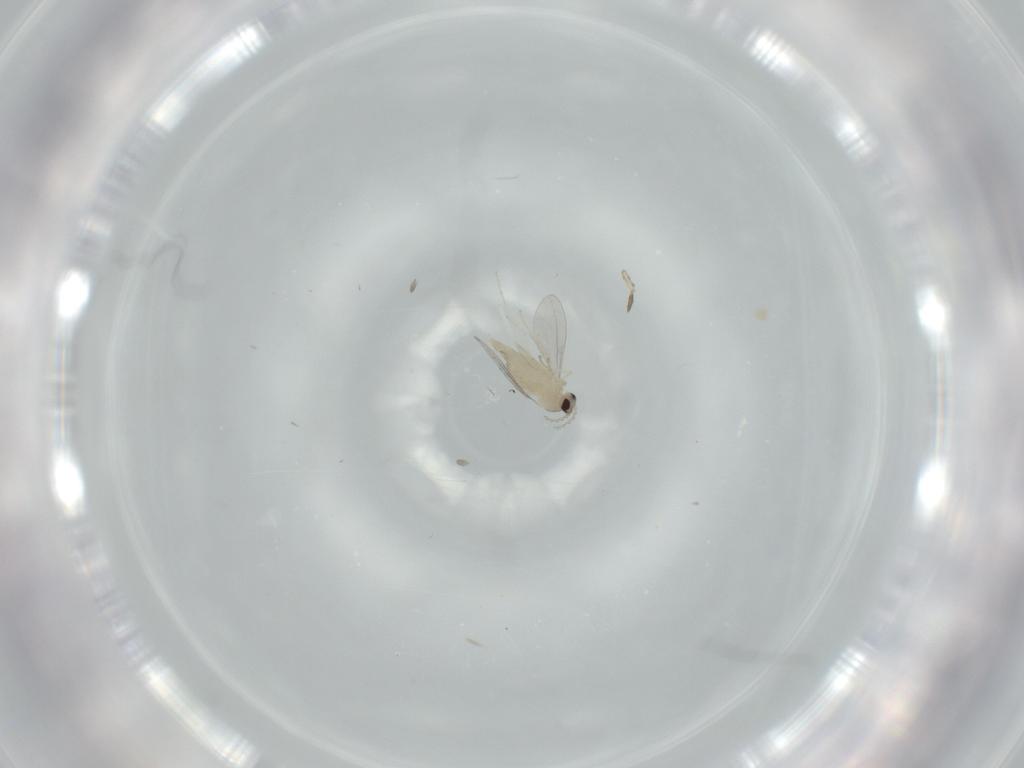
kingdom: Animalia
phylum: Arthropoda
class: Insecta
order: Diptera
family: Cecidomyiidae
